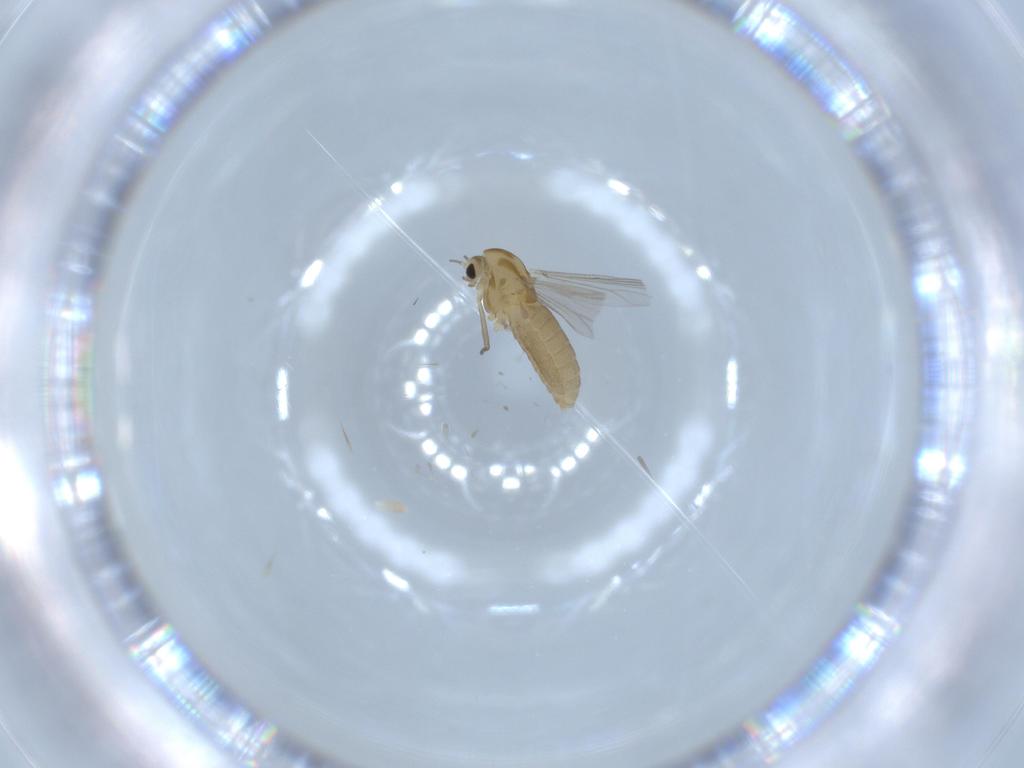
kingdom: Animalia
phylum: Arthropoda
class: Insecta
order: Diptera
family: Chironomidae
